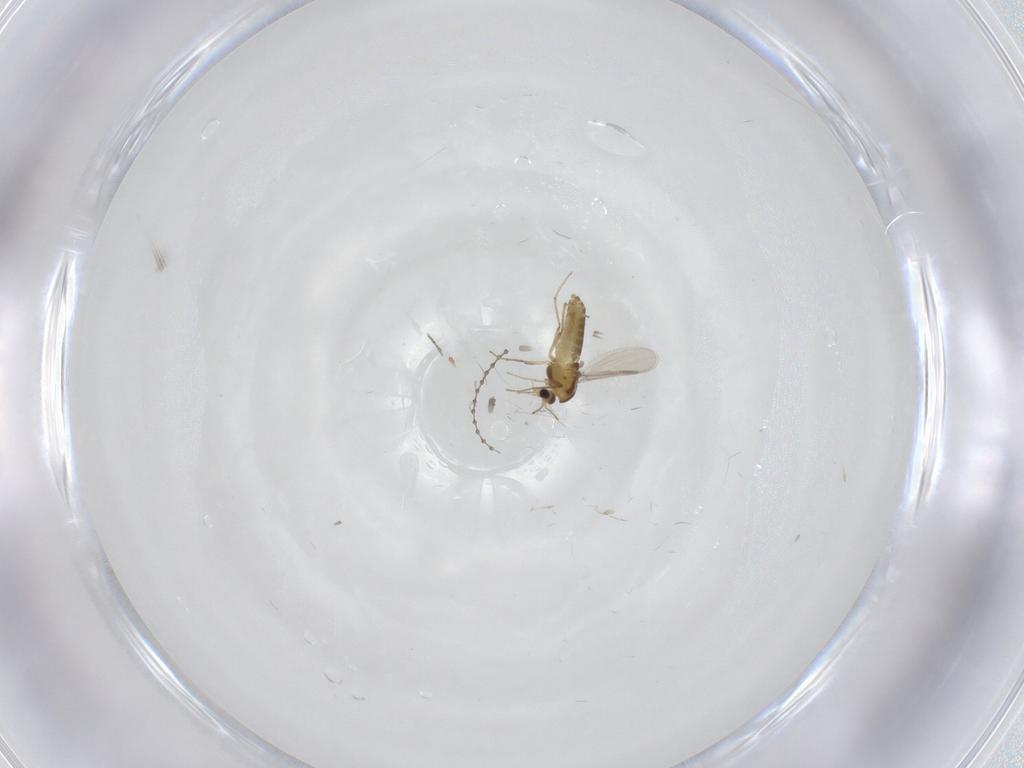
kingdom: Animalia
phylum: Arthropoda
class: Insecta
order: Diptera
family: Chironomidae
